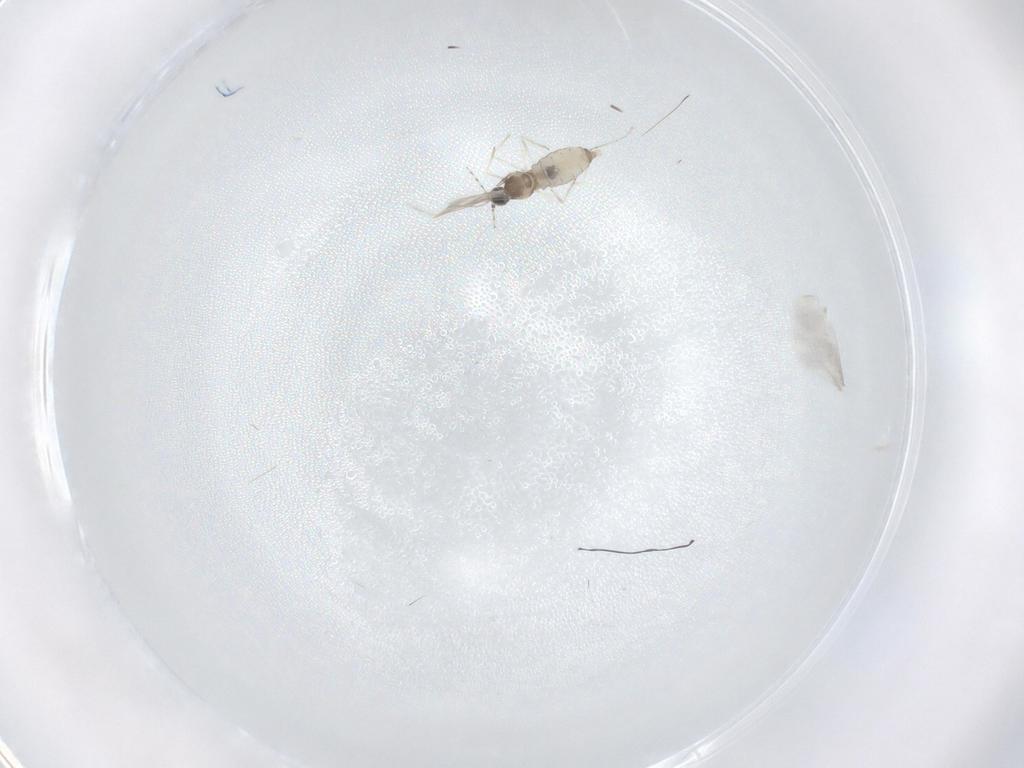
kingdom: Animalia
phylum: Arthropoda
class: Insecta
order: Diptera
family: Cecidomyiidae
